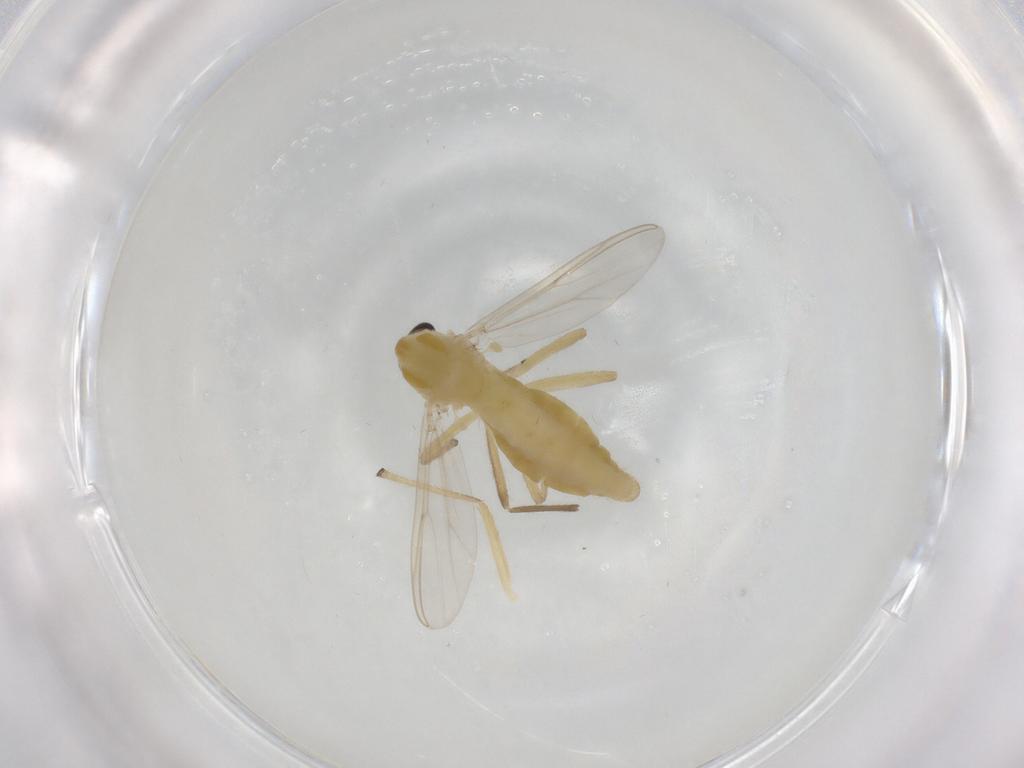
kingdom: Animalia
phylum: Arthropoda
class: Insecta
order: Diptera
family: Chironomidae
